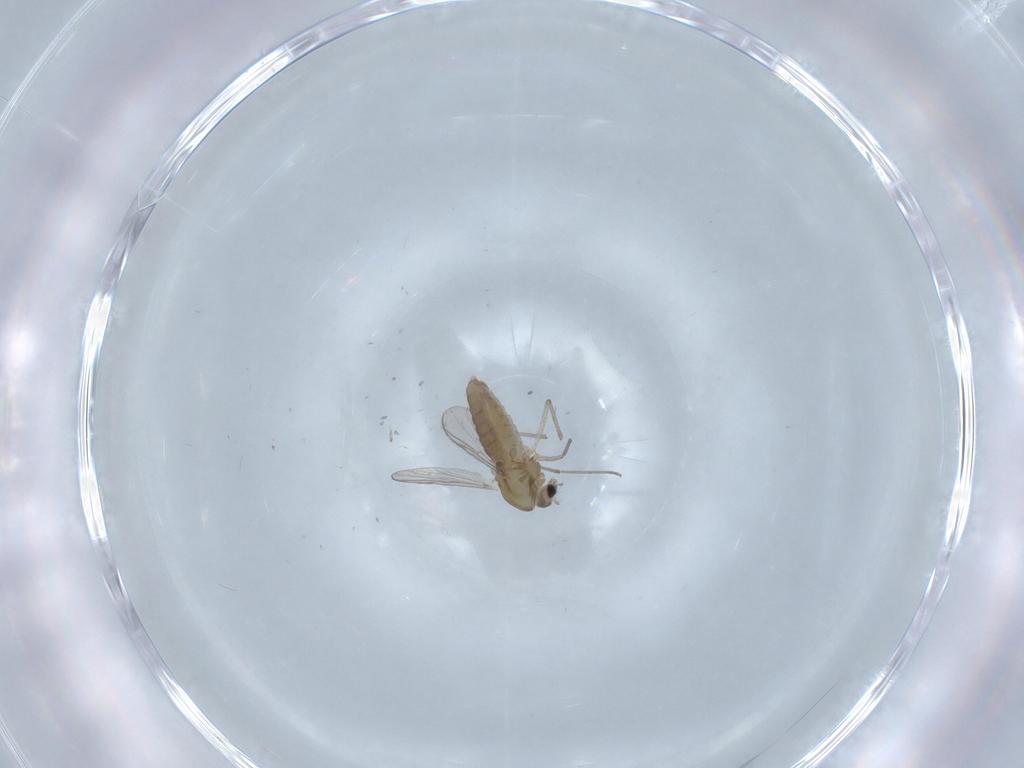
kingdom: Animalia
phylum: Arthropoda
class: Insecta
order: Diptera
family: Chironomidae
